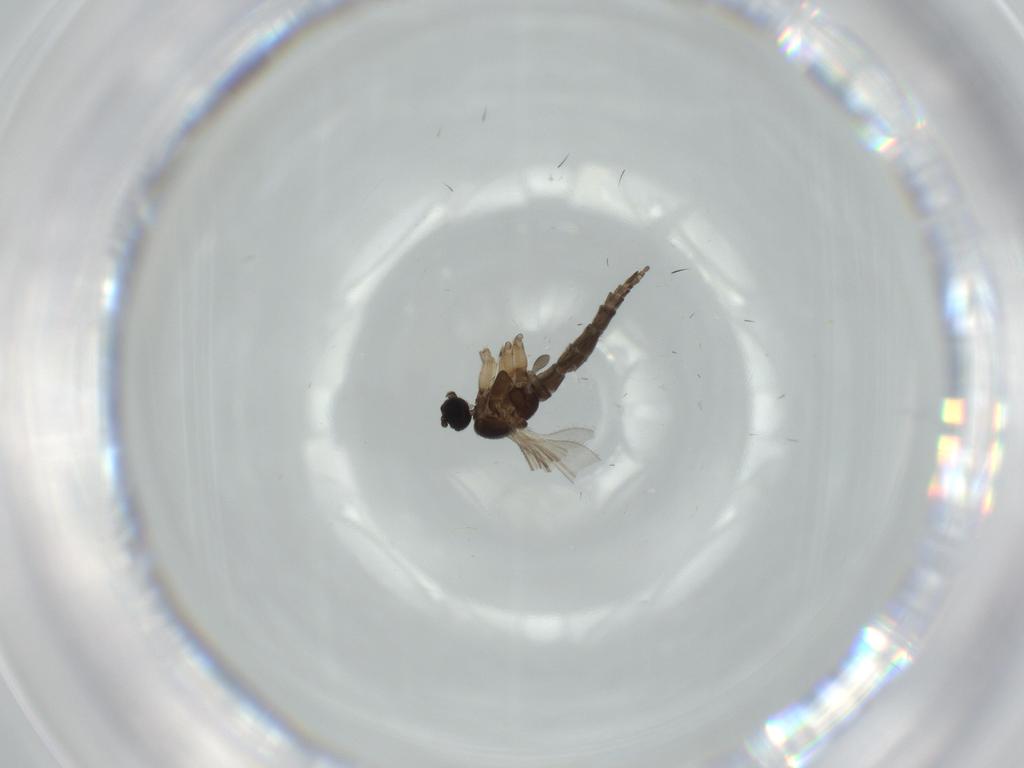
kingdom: Animalia
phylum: Arthropoda
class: Insecta
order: Diptera
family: Sciaridae
